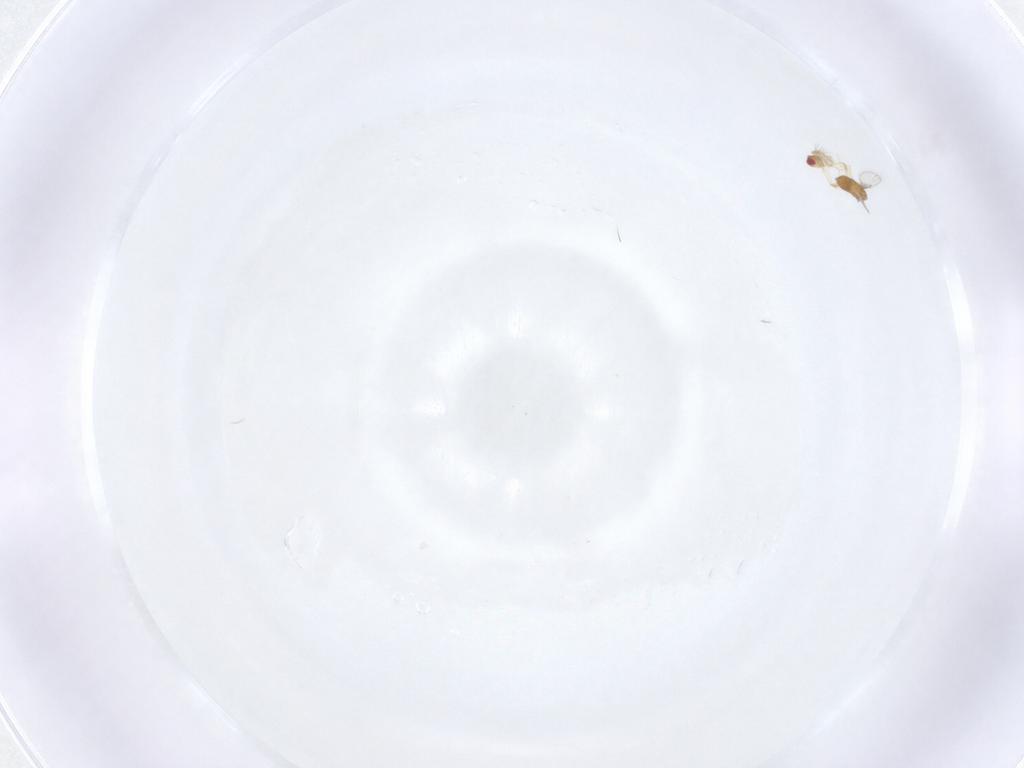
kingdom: Animalia
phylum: Arthropoda
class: Insecta
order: Hymenoptera
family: Trichogrammatidae
